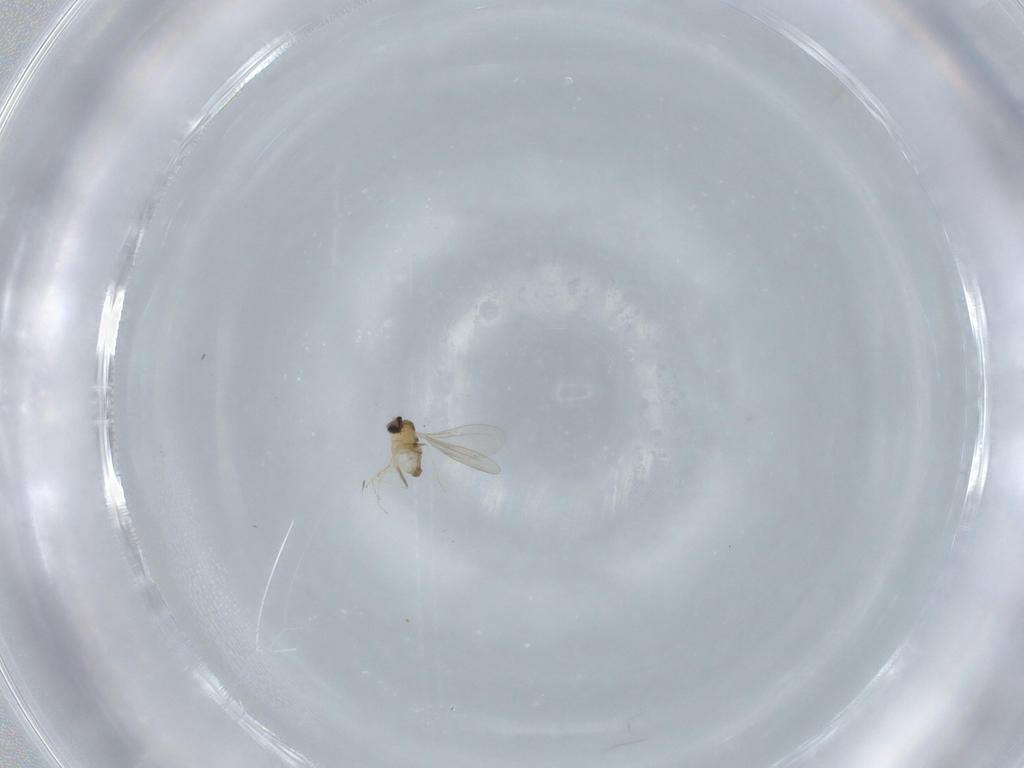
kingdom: Animalia
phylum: Arthropoda
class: Insecta
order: Diptera
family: Cecidomyiidae
